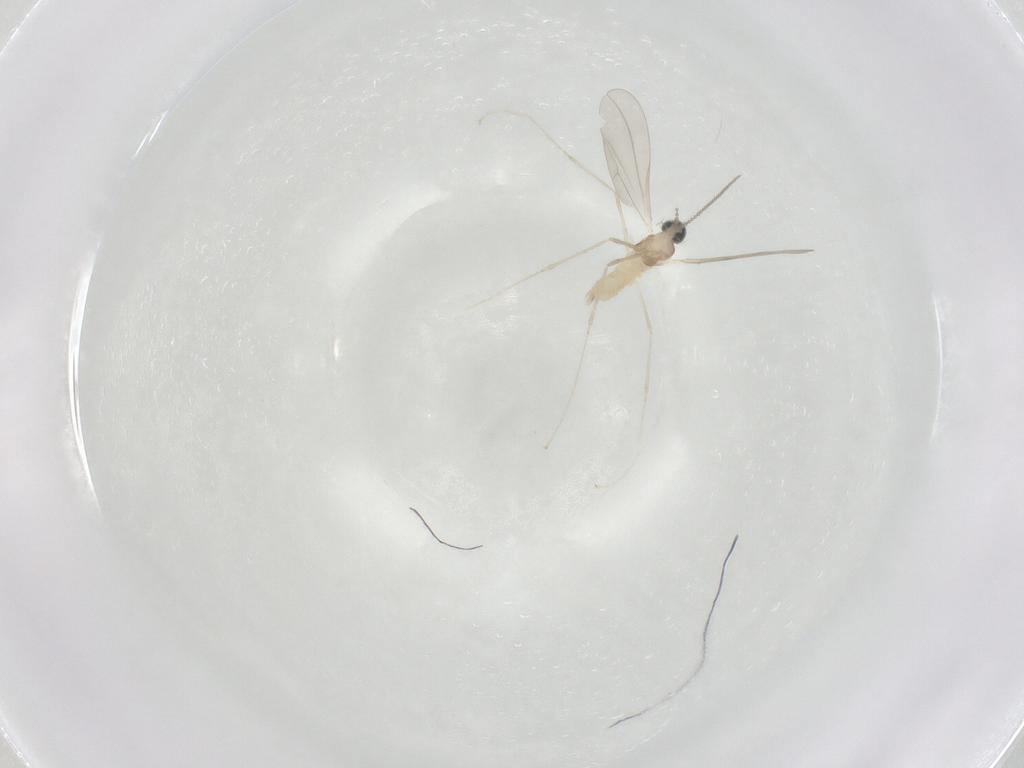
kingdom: Animalia
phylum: Arthropoda
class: Insecta
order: Diptera
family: Cecidomyiidae
